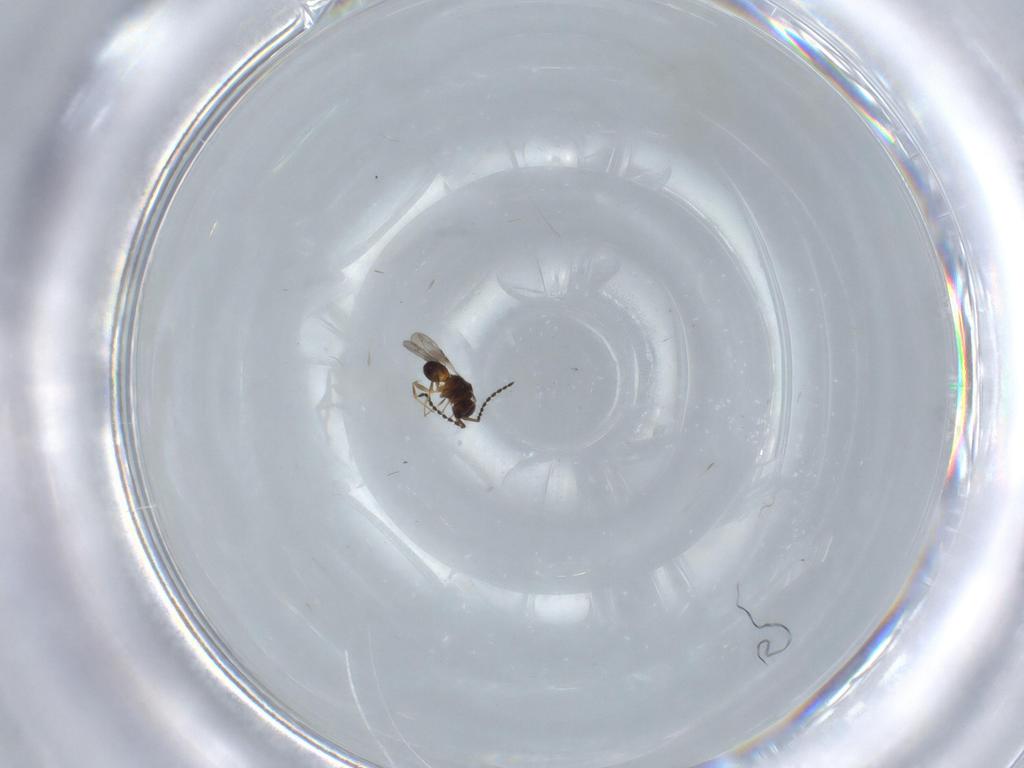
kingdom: Animalia
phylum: Arthropoda
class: Insecta
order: Hymenoptera
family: Ceraphronidae
